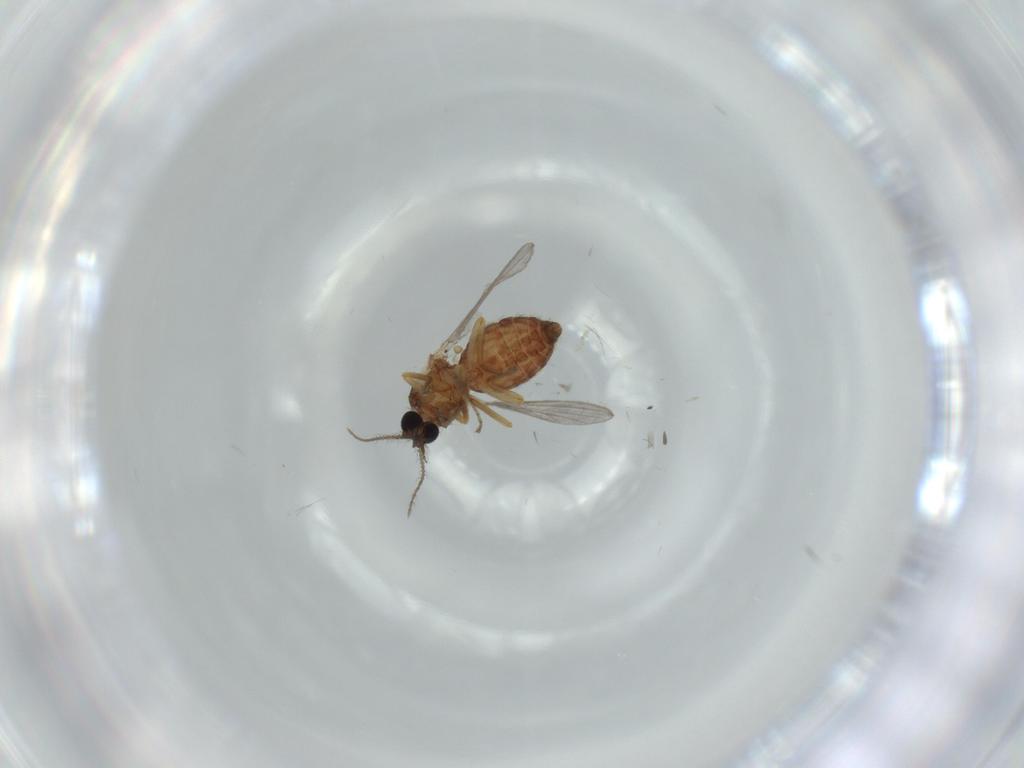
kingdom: Animalia
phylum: Arthropoda
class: Insecta
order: Diptera
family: Ceratopogonidae
